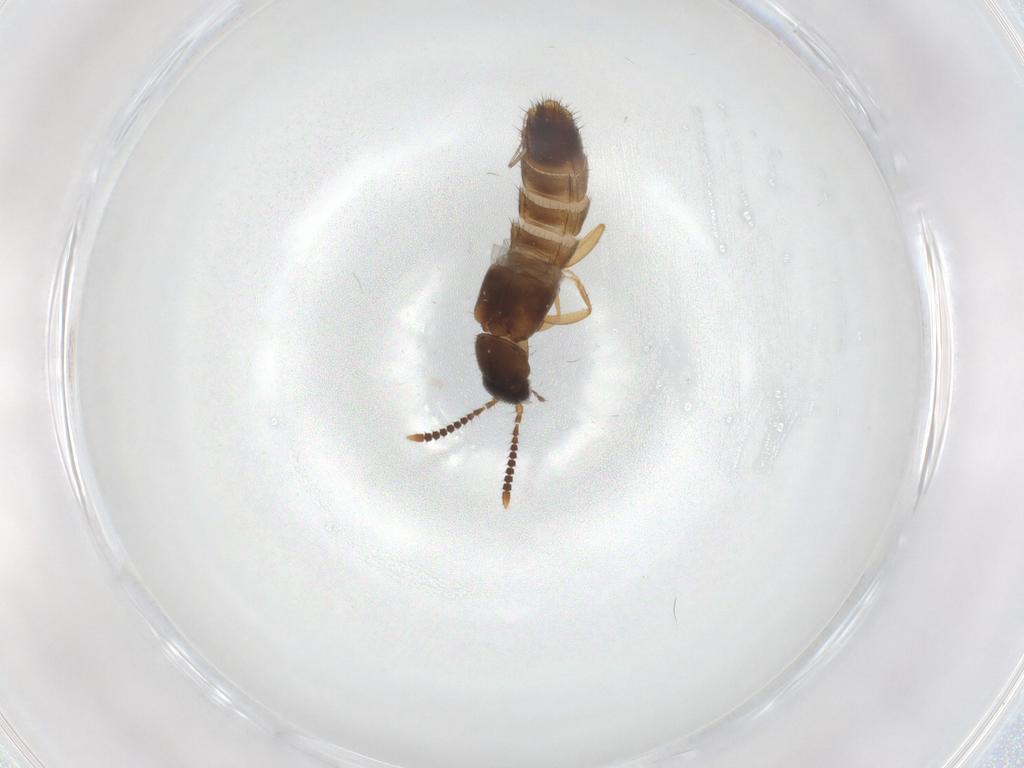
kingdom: Animalia
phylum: Arthropoda
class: Insecta
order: Coleoptera
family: Staphylinidae
